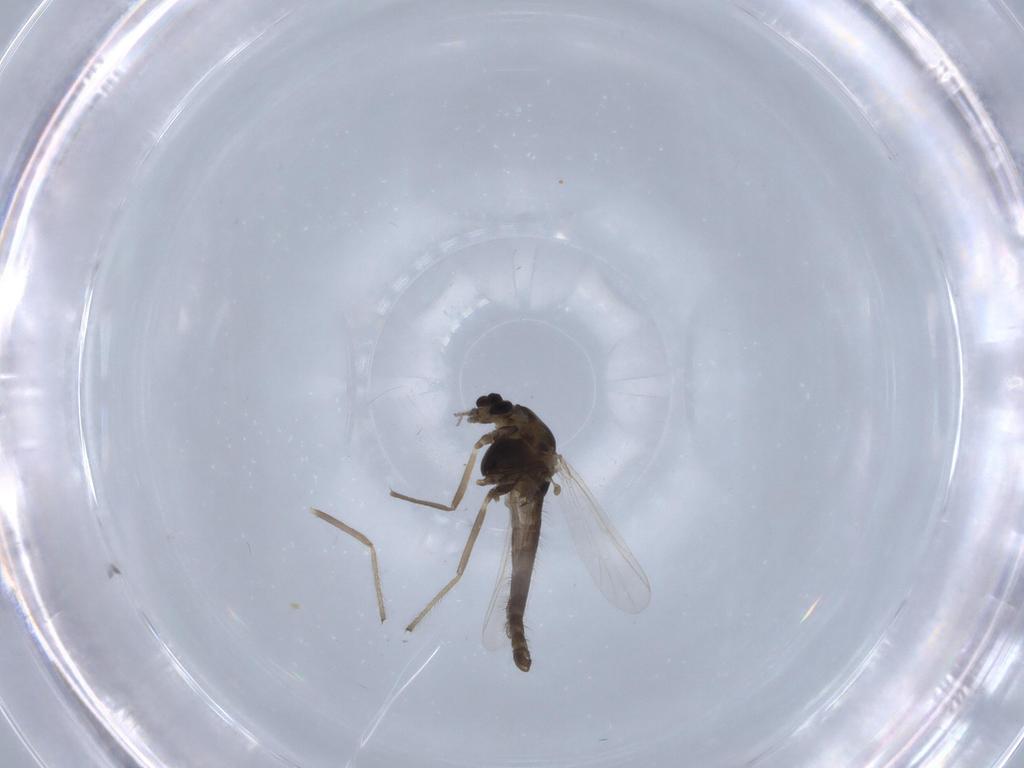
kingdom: Animalia
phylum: Arthropoda
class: Insecta
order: Diptera
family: Chironomidae
